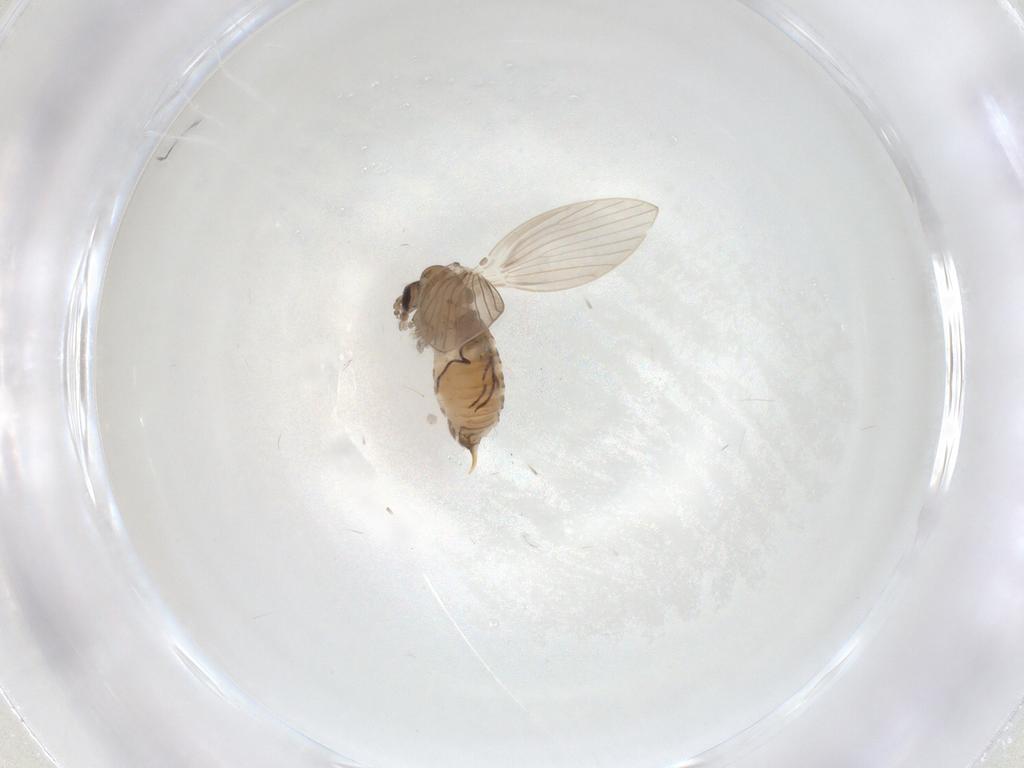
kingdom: Animalia
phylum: Arthropoda
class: Insecta
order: Diptera
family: Psychodidae
